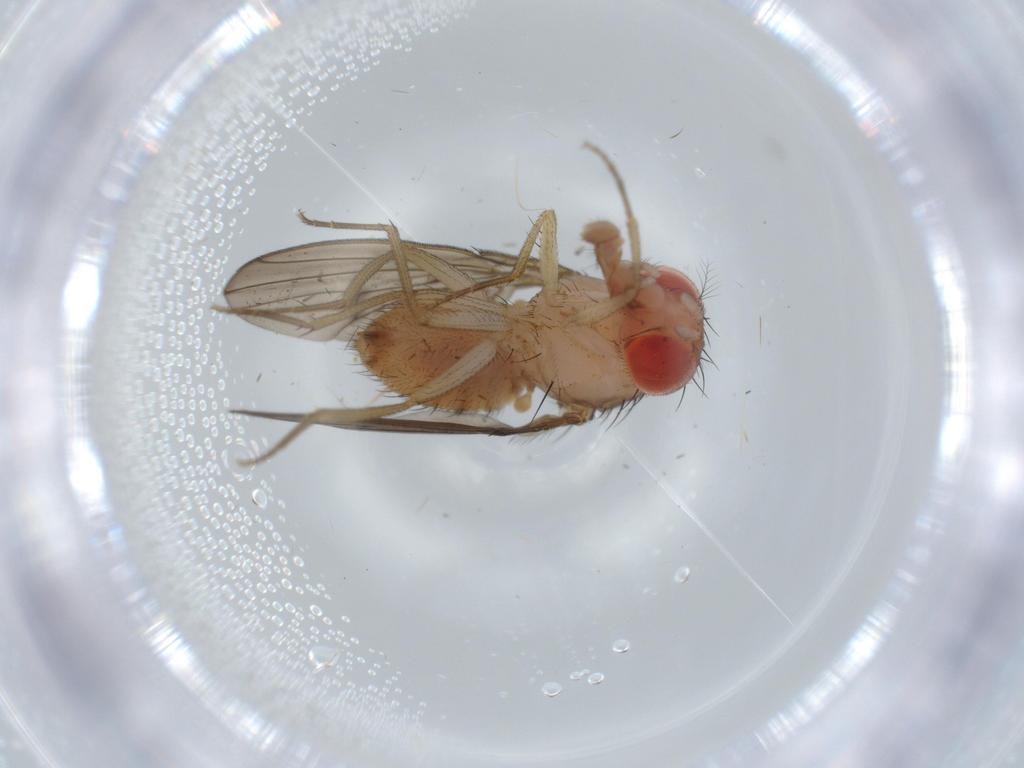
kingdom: Animalia
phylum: Arthropoda
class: Insecta
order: Diptera
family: Drosophilidae
